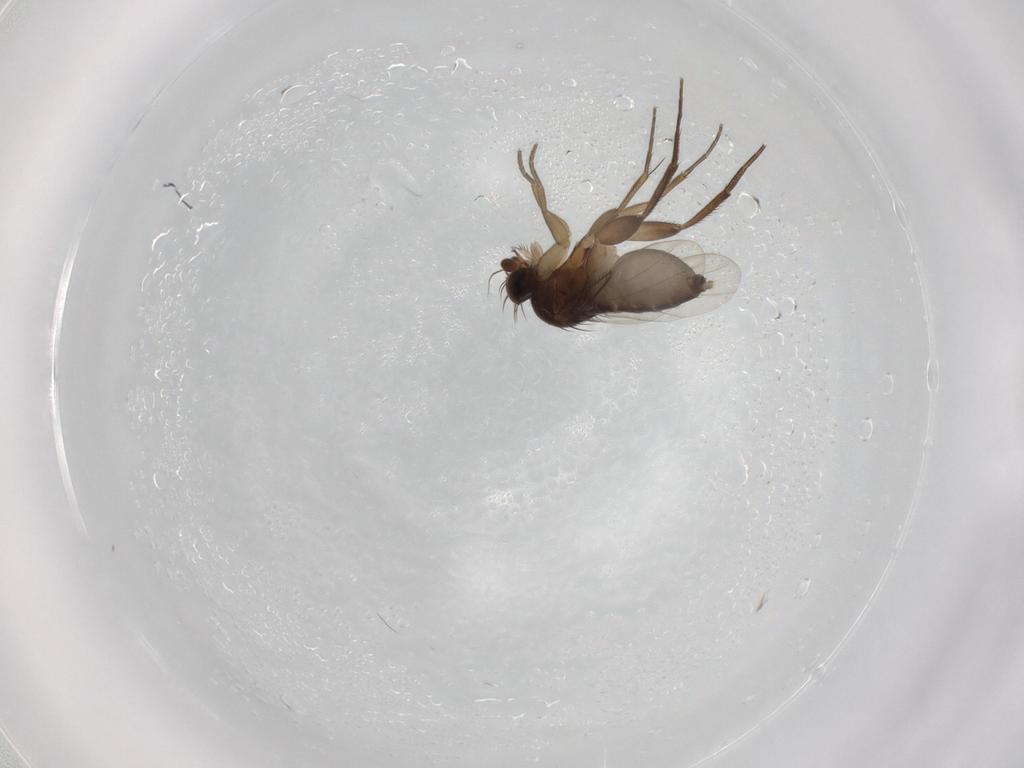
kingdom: Animalia
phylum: Arthropoda
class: Insecta
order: Diptera
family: Phoridae
